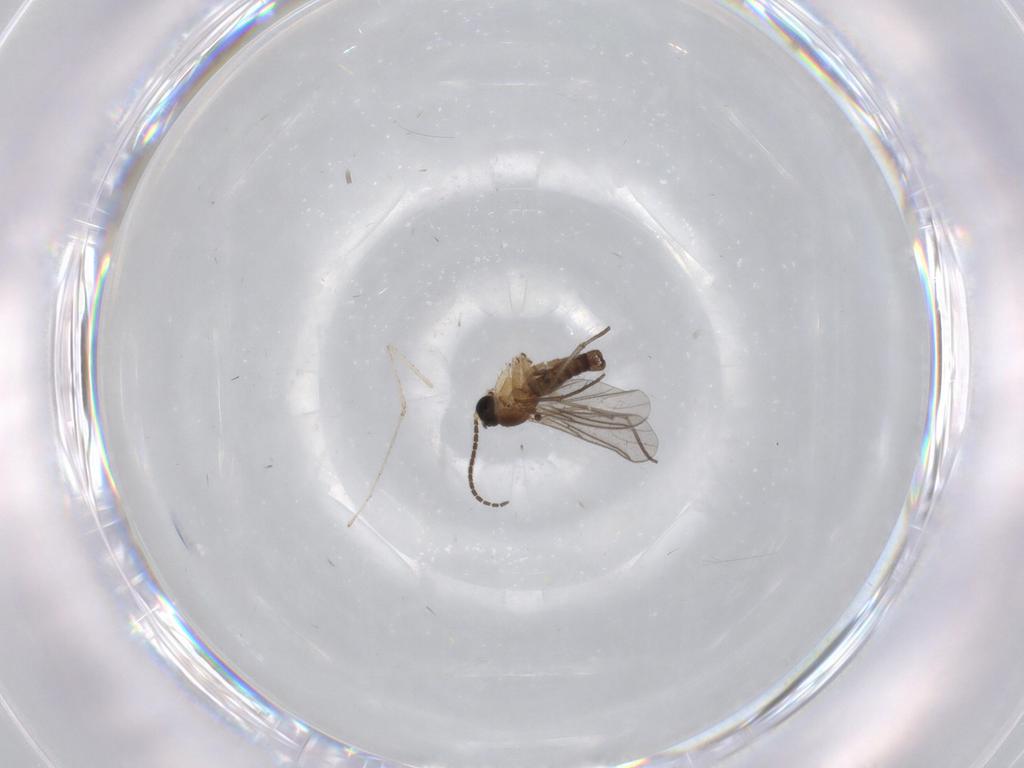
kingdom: Animalia
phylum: Arthropoda
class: Insecta
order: Diptera
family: Sciaridae
